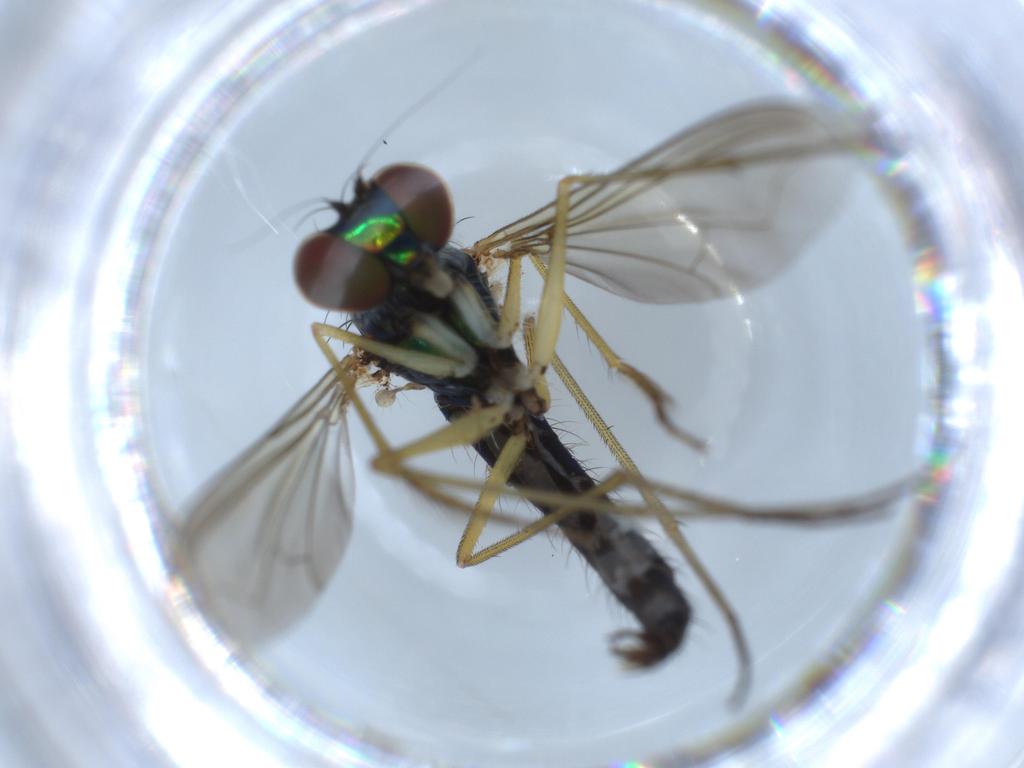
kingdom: Animalia
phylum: Arthropoda
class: Insecta
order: Diptera
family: Dolichopodidae
